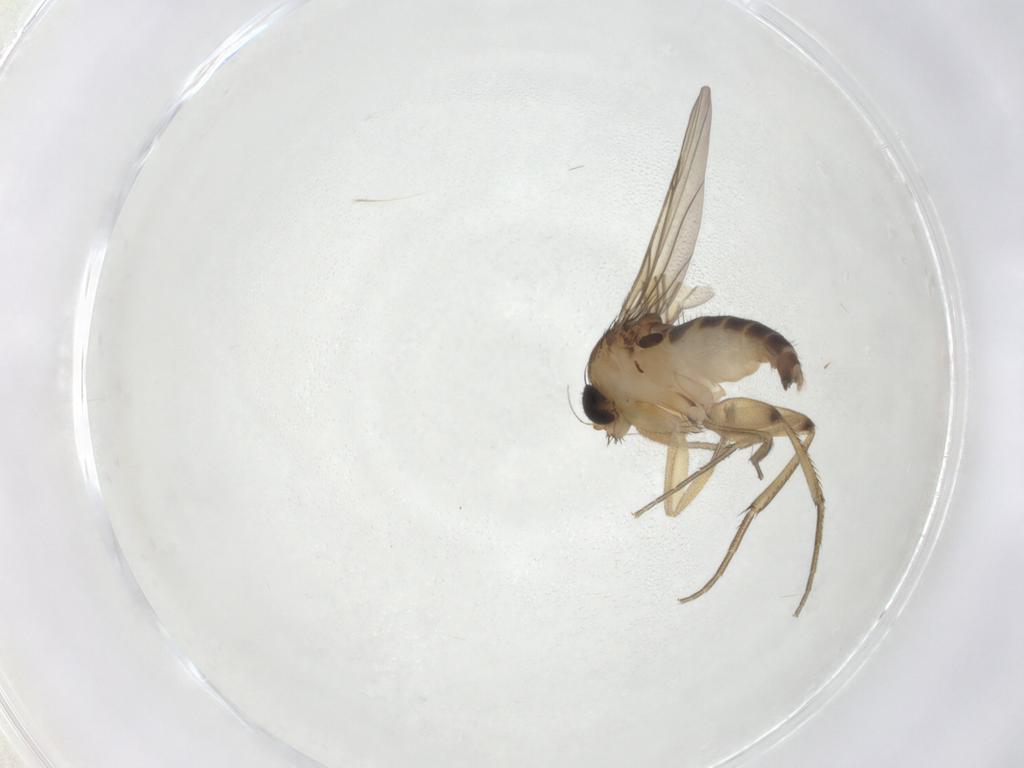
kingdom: Animalia
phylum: Arthropoda
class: Insecta
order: Diptera
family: Phoridae
